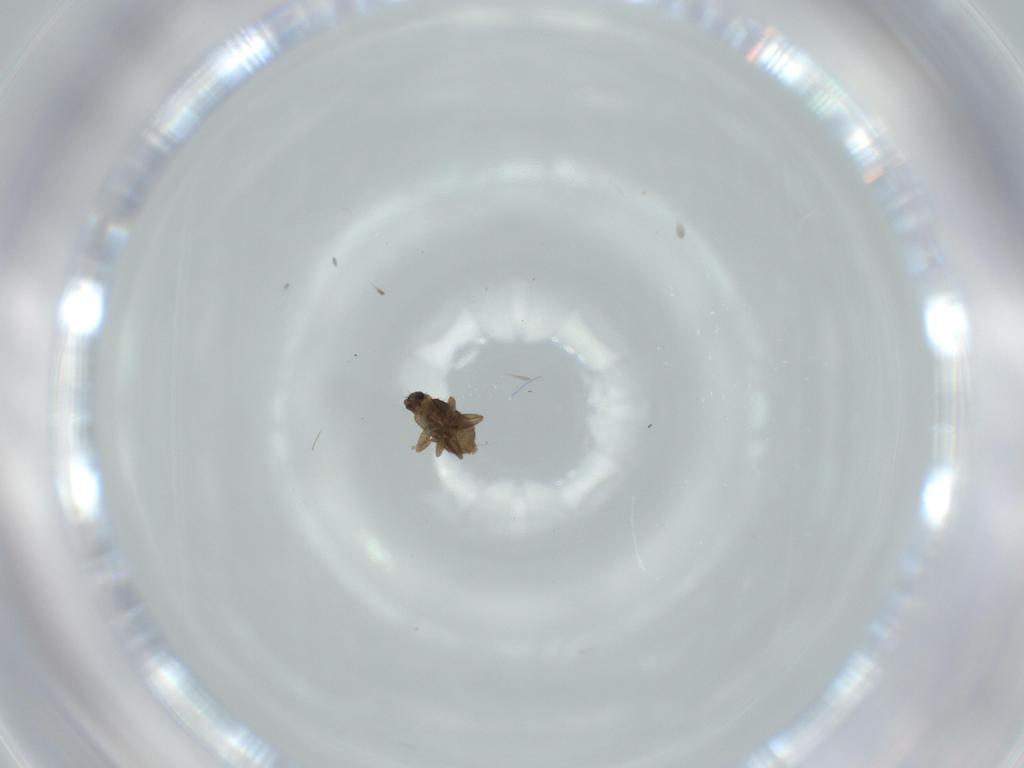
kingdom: Animalia
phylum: Arthropoda
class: Insecta
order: Diptera
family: Phoridae
